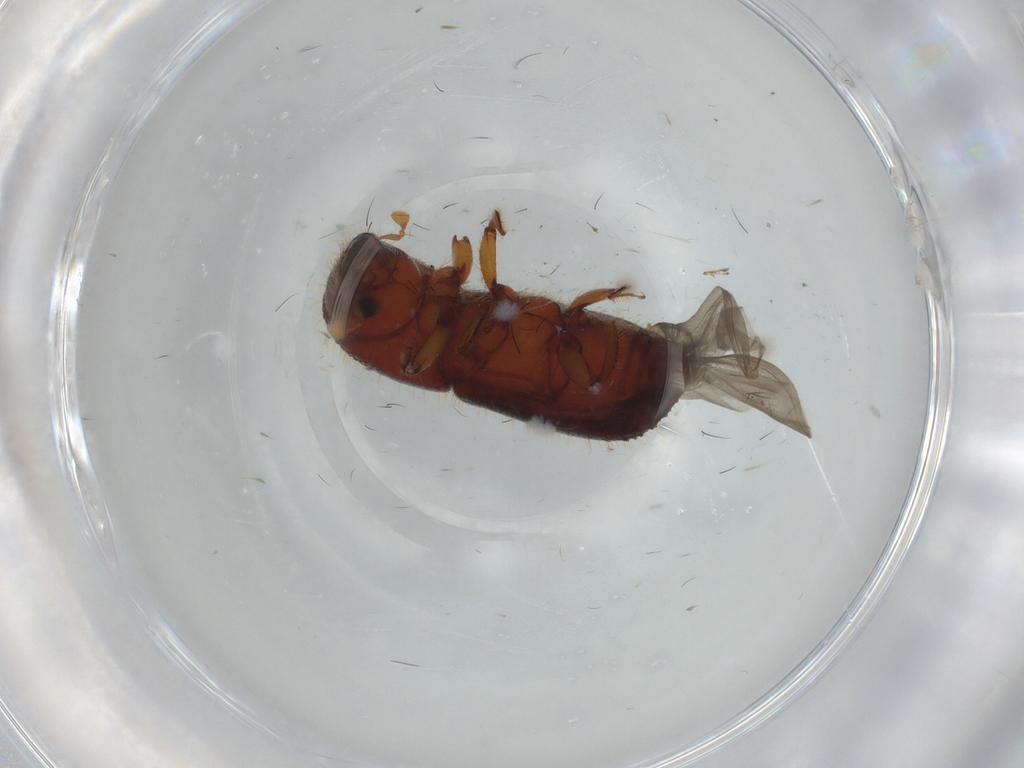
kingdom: Animalia
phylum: Arthropoda
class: Insecta
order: Coleoptera
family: Curculionidae
